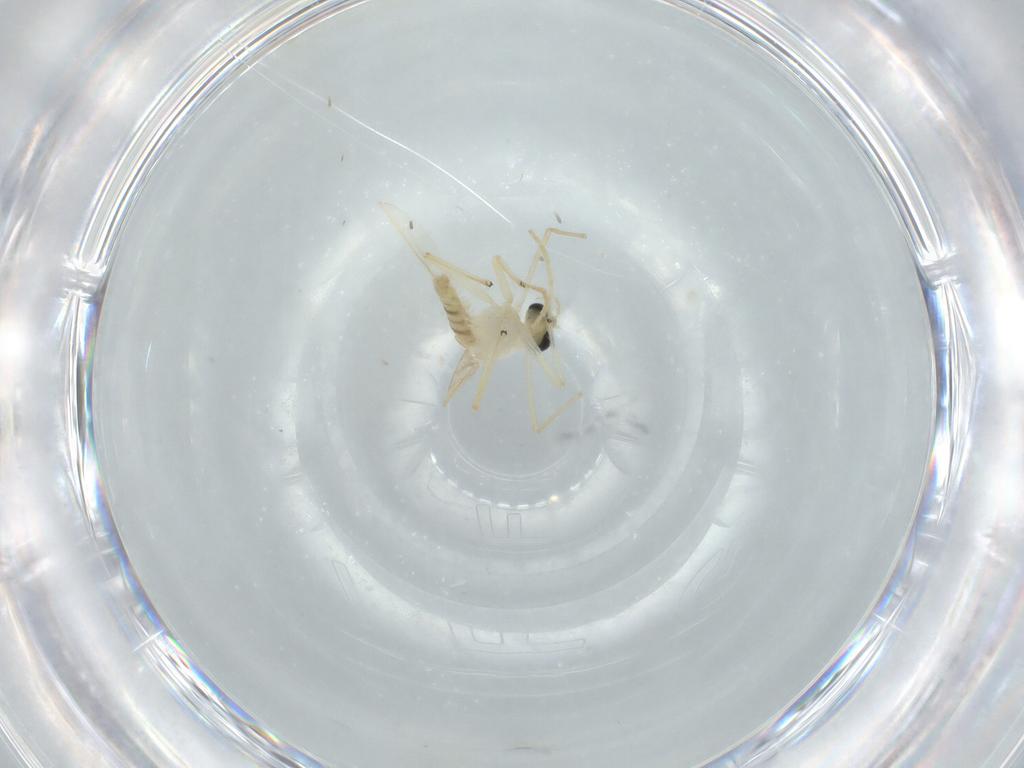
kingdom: Animalia
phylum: Arthropoda
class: Insecta
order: Diptera
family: Chironomidae
